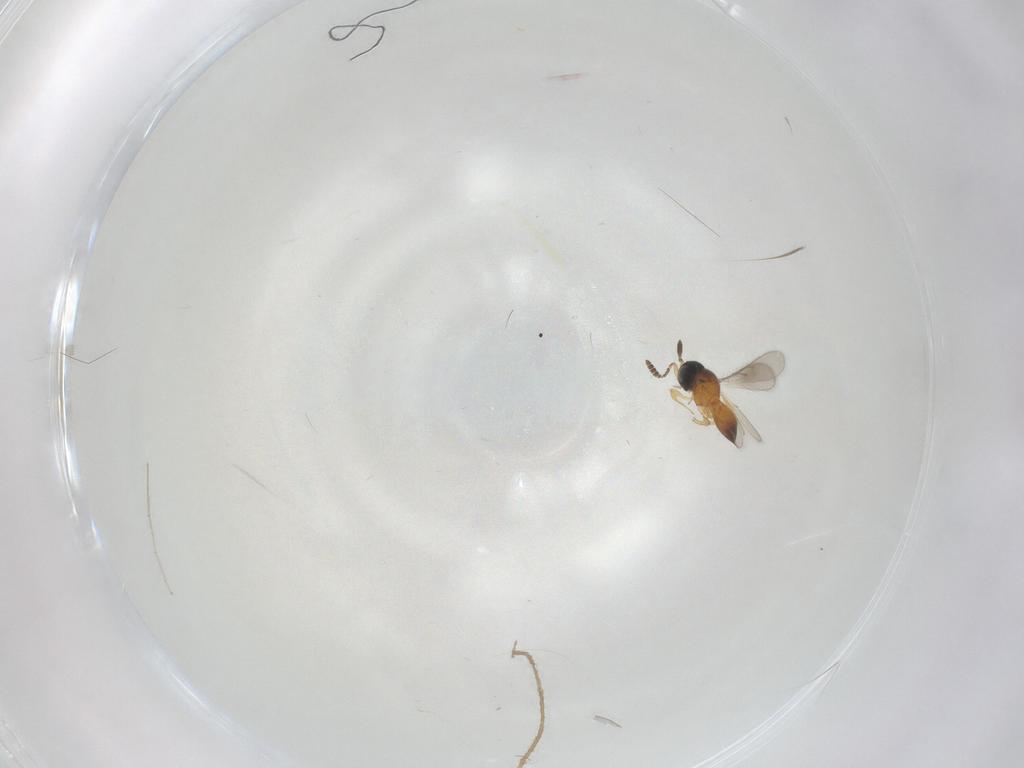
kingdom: Animalia
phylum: Arthropoda
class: Insecta
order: Hymenoptera
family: Scelionidae
